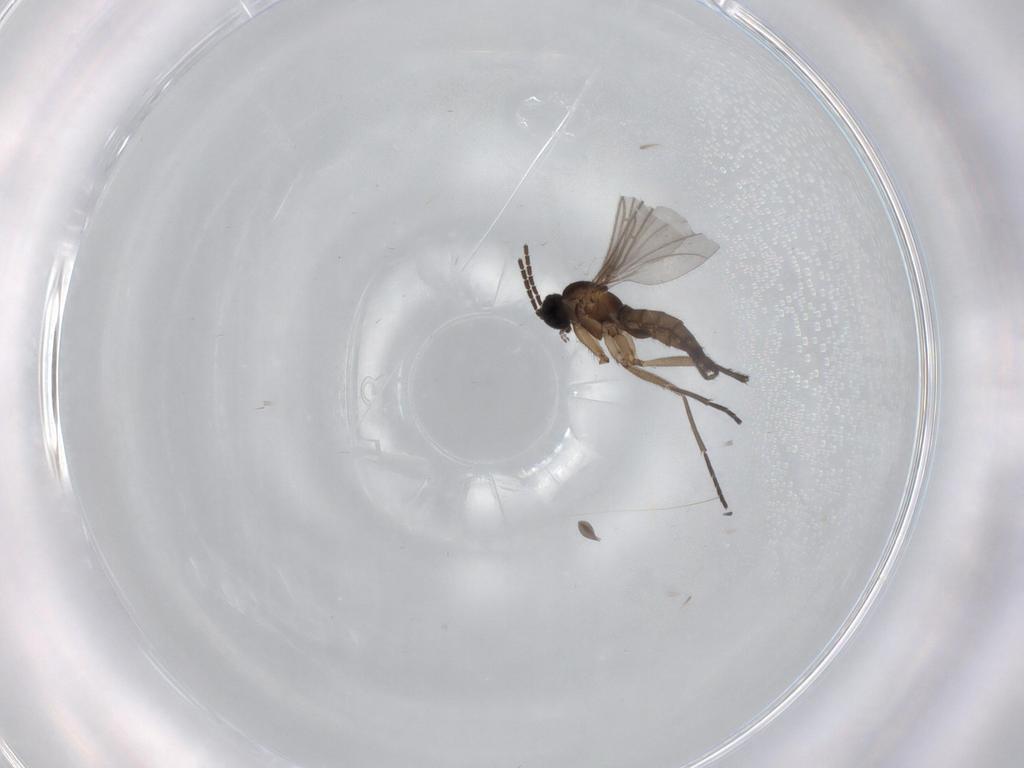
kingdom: Animalia
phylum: Arthropoda
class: Insecta
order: Diptera
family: Sciaridae
